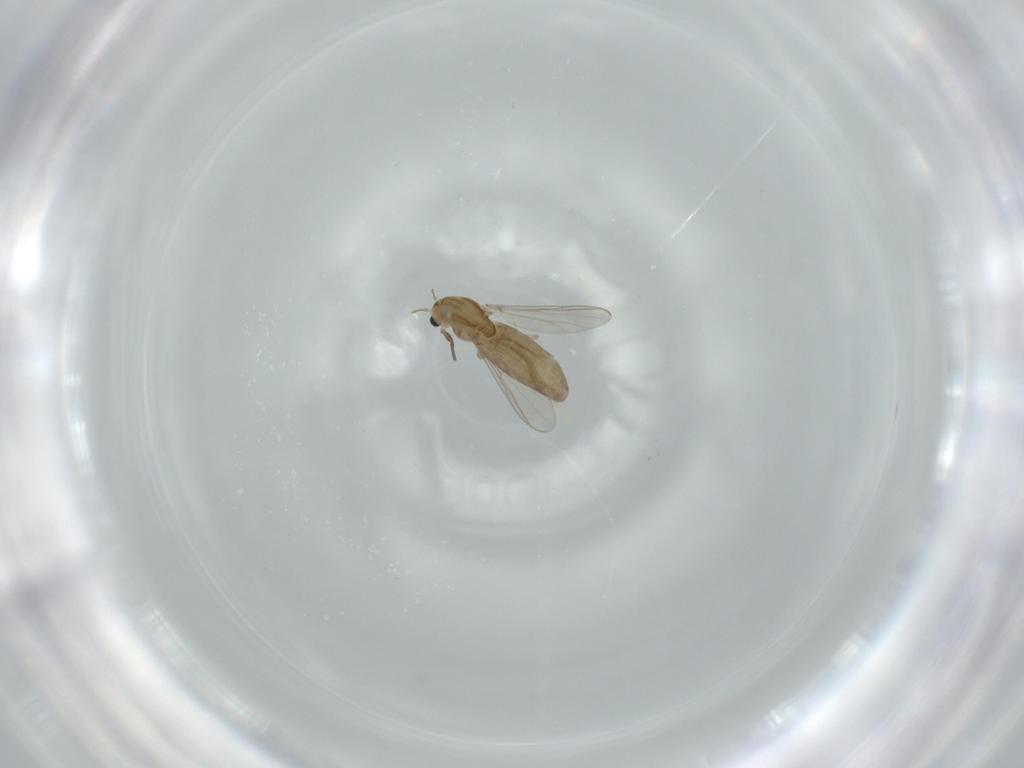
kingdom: Animalia
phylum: Arthropoda
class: Insecta
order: Diptera
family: Chironomidae
